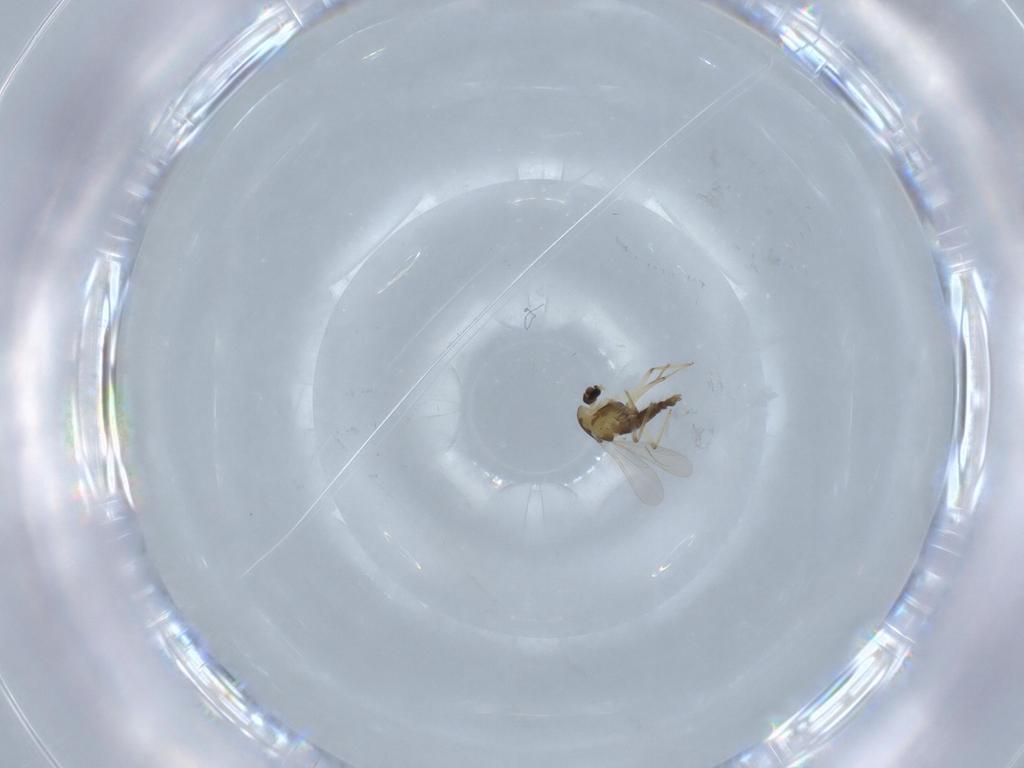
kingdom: Animalia
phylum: Arthropoda
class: Insecta
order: Diptera
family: Chironomidae
